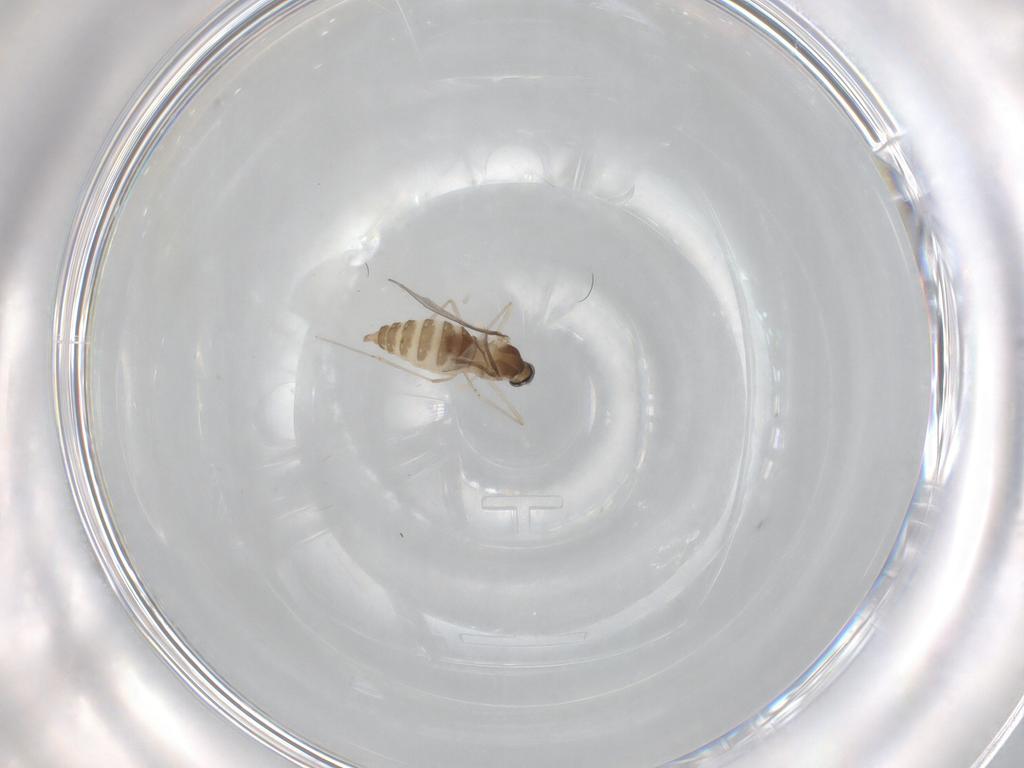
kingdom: Animalia
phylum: Arthropoda
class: Insecta
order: Diptera
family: Cecidomyiidae
